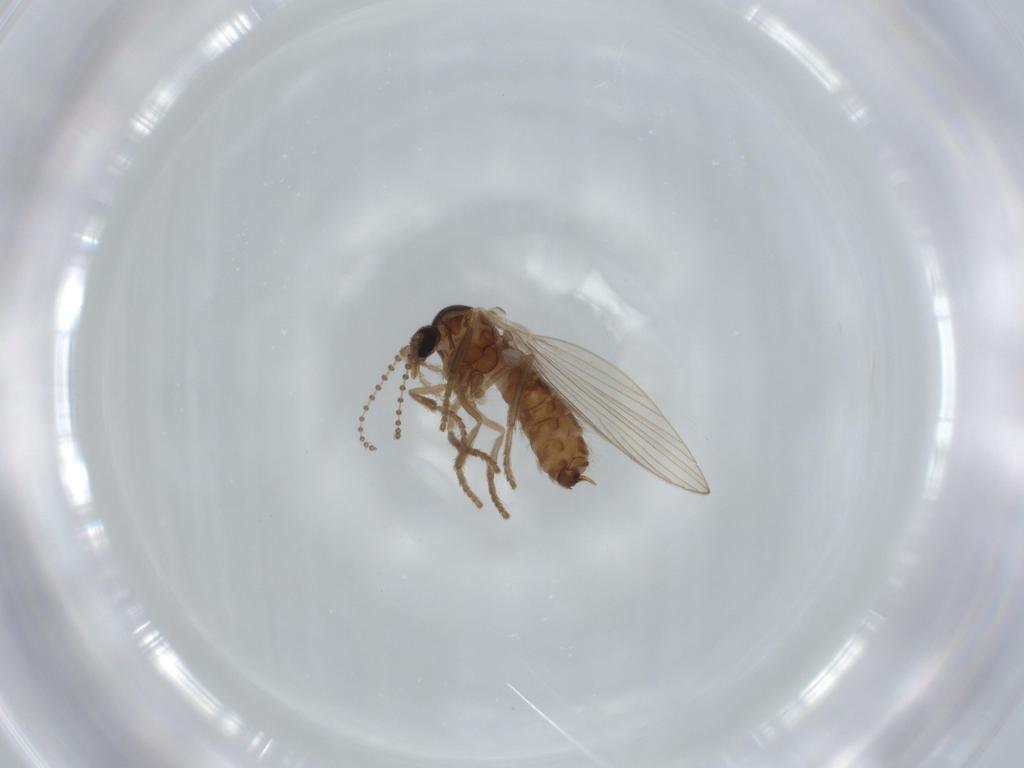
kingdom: Animalia
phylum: Arthropoda
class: Insecta
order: Diptera
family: Psychodidae
